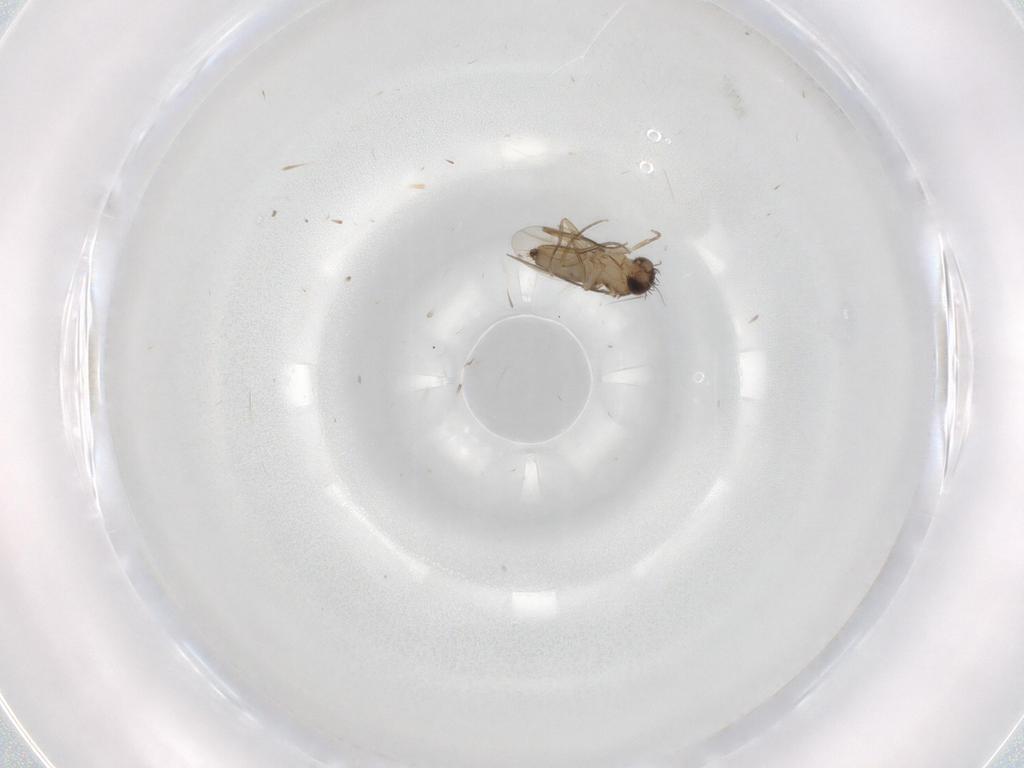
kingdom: Animalia
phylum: Arthropoda
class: Insecta
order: Diptera
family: Phoridae
